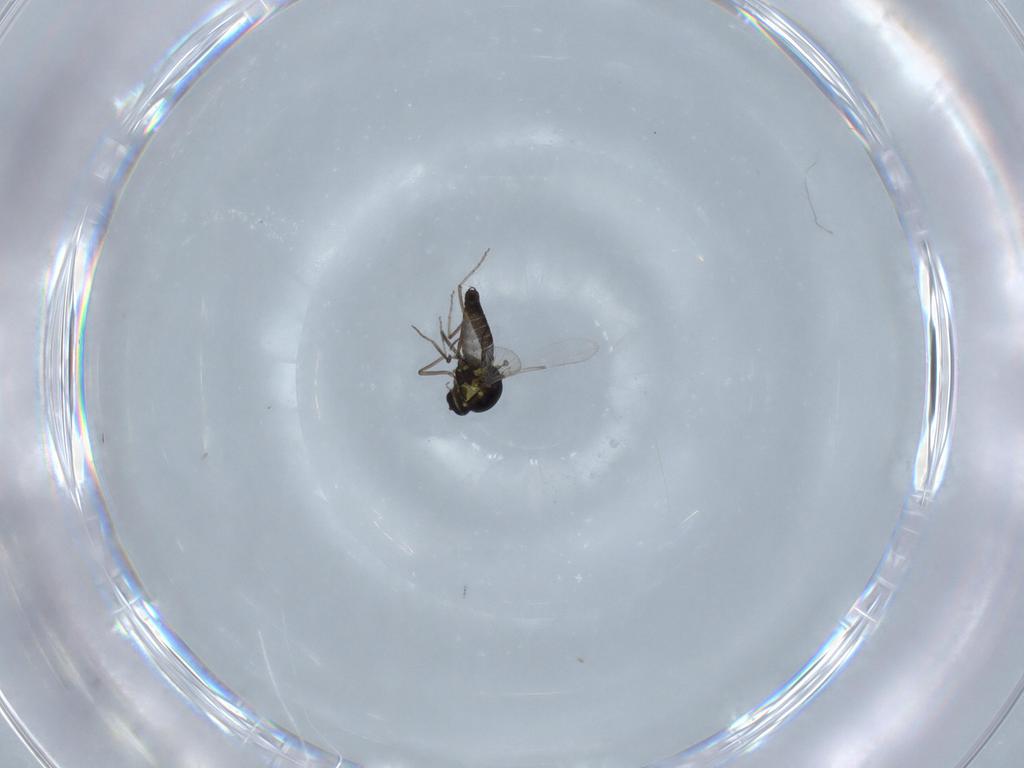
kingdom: Animalia
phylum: Arthropoda
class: Insecta
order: Diptera
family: Ceratopogonidae
